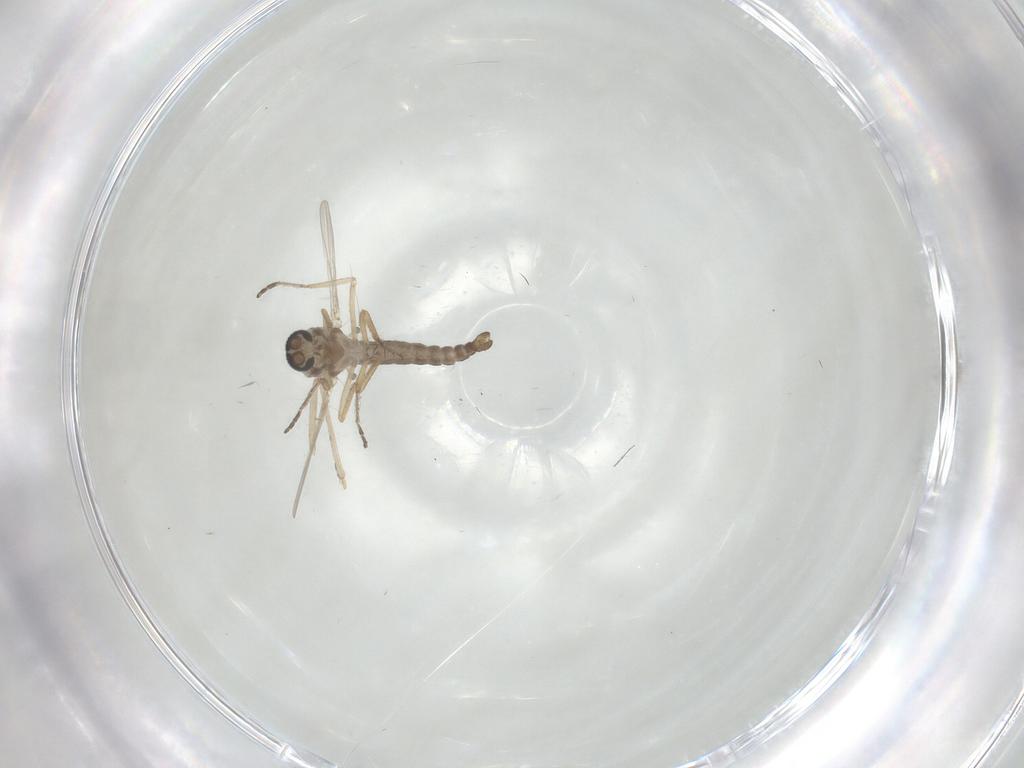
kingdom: Animalia
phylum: Arthropoda
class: Insecta
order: Diptera
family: Ceratopogonidae
